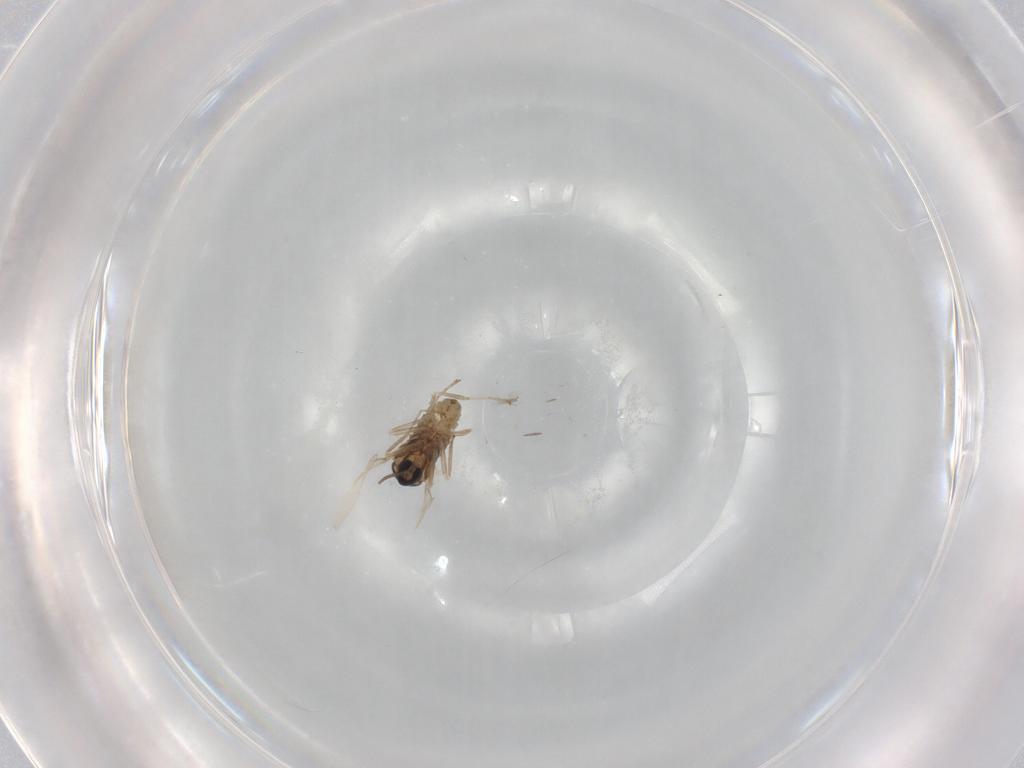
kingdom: Animalia
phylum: Arthropoda
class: Insecta
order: Diptera
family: Cecidomyiidae
